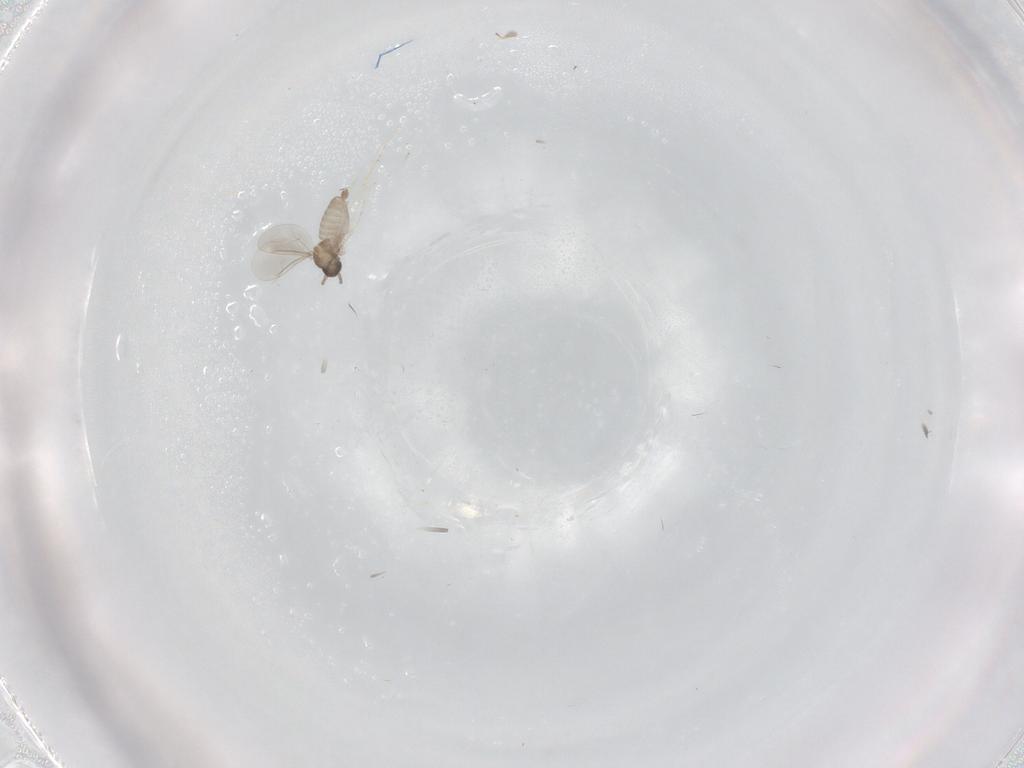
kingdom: Animalia
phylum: Arthropoda
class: Insecta
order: Diptera
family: Cecidomyiidae
